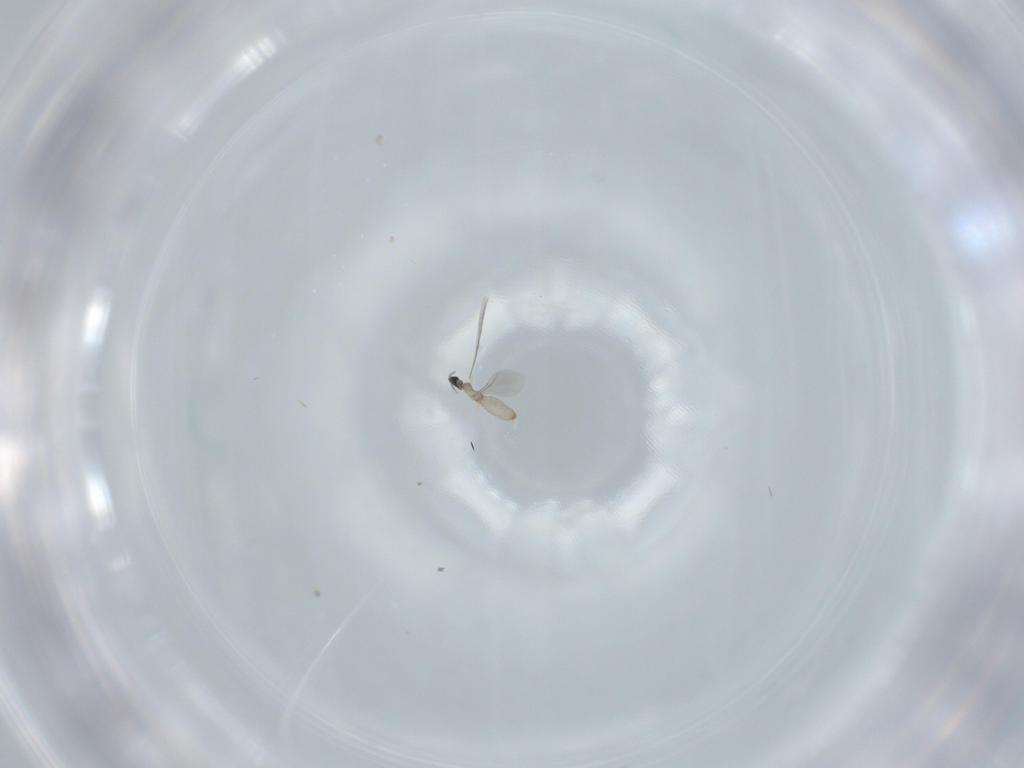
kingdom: Animalia
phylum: Arthropoda
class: Insecta
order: Diptera
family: Cecidomyiidae
